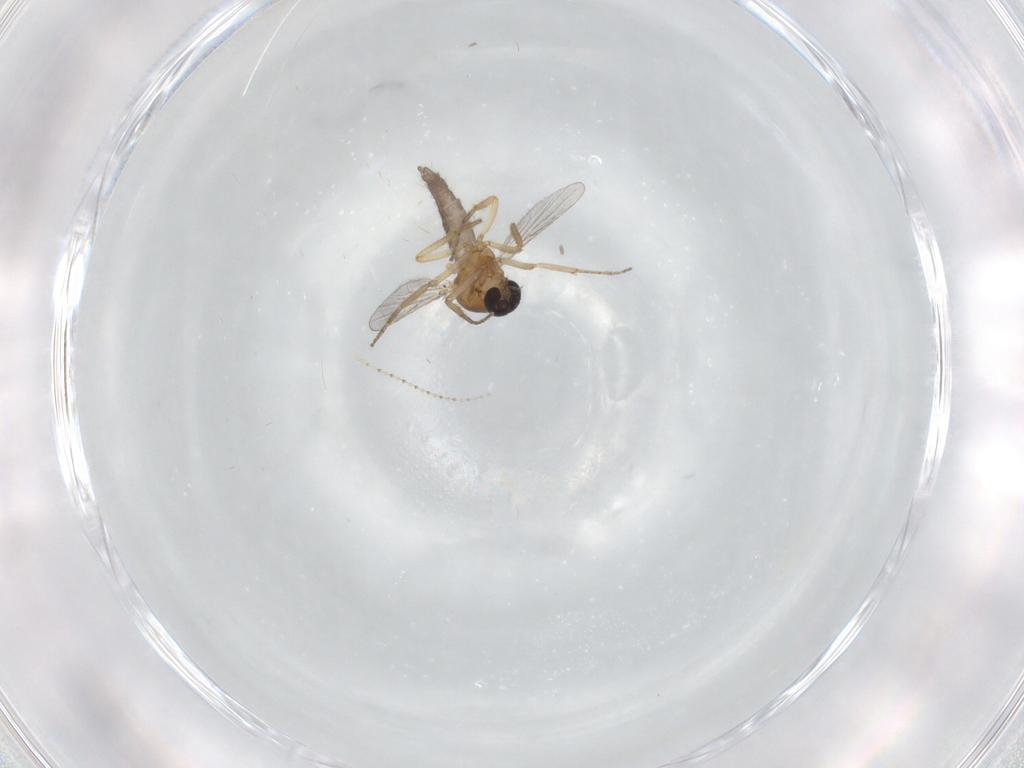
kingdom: Animalia
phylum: Arthropoda
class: Insecta
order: Diptera
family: Ceratopogonidae
